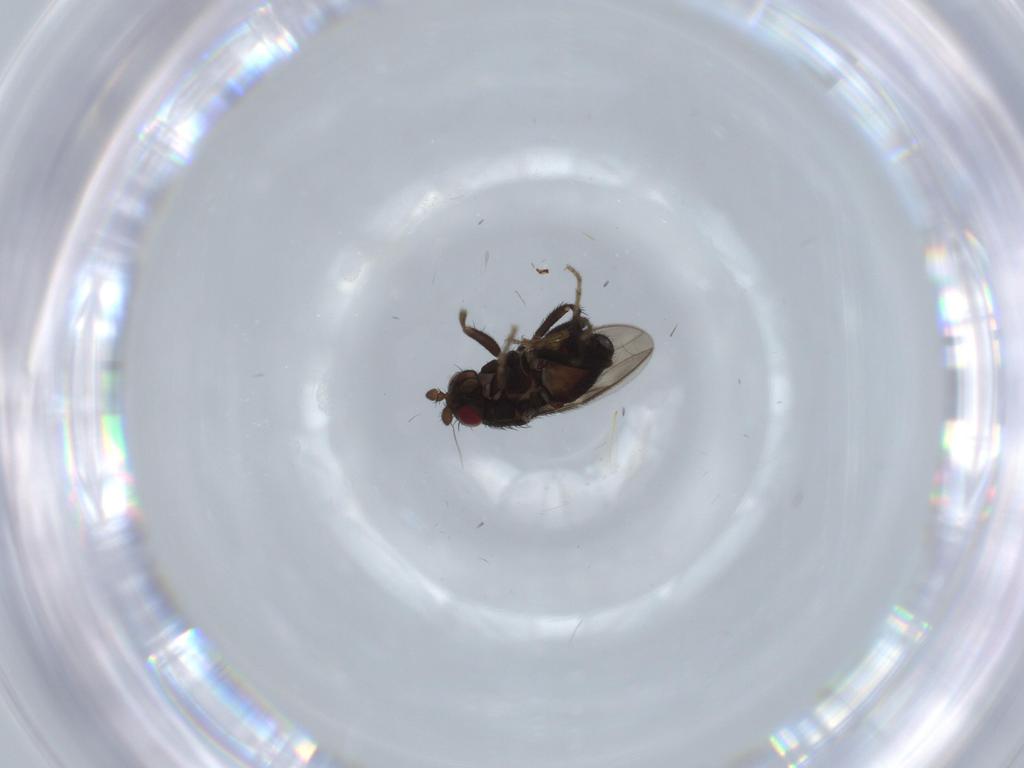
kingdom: Animalia
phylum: Arthropoda
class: Insecta
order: Diptera
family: Sphaeroceridae
